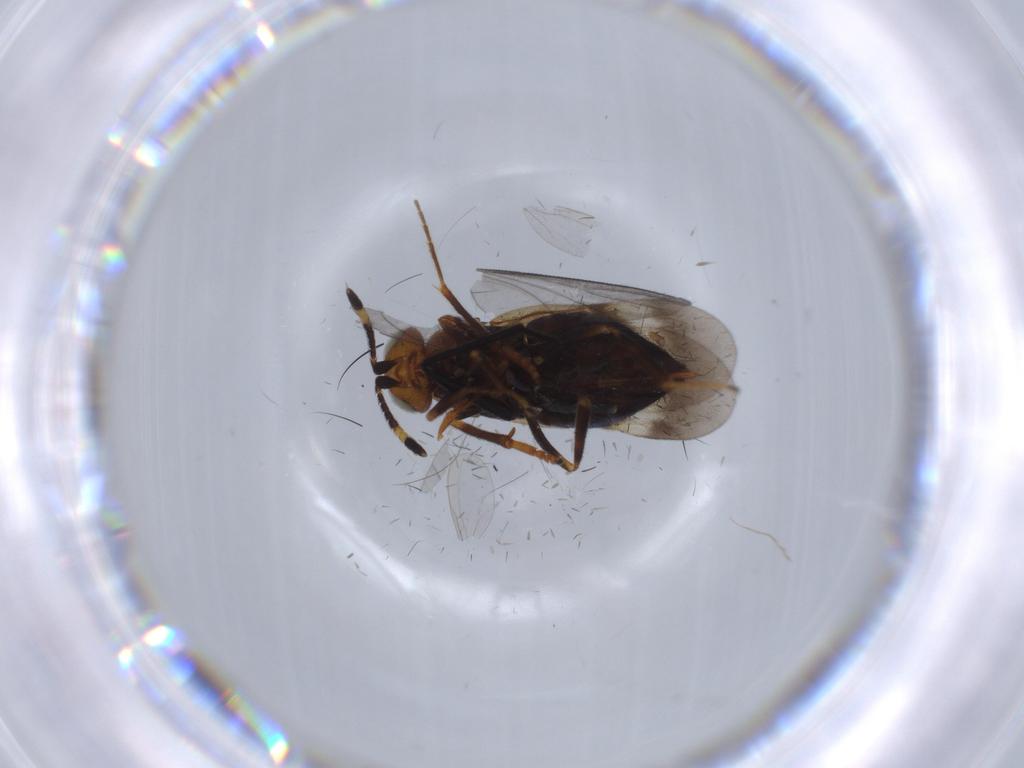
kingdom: Animalia
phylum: Arthropoda
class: Insecta
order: Hymenoptera
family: Encyrtidae
